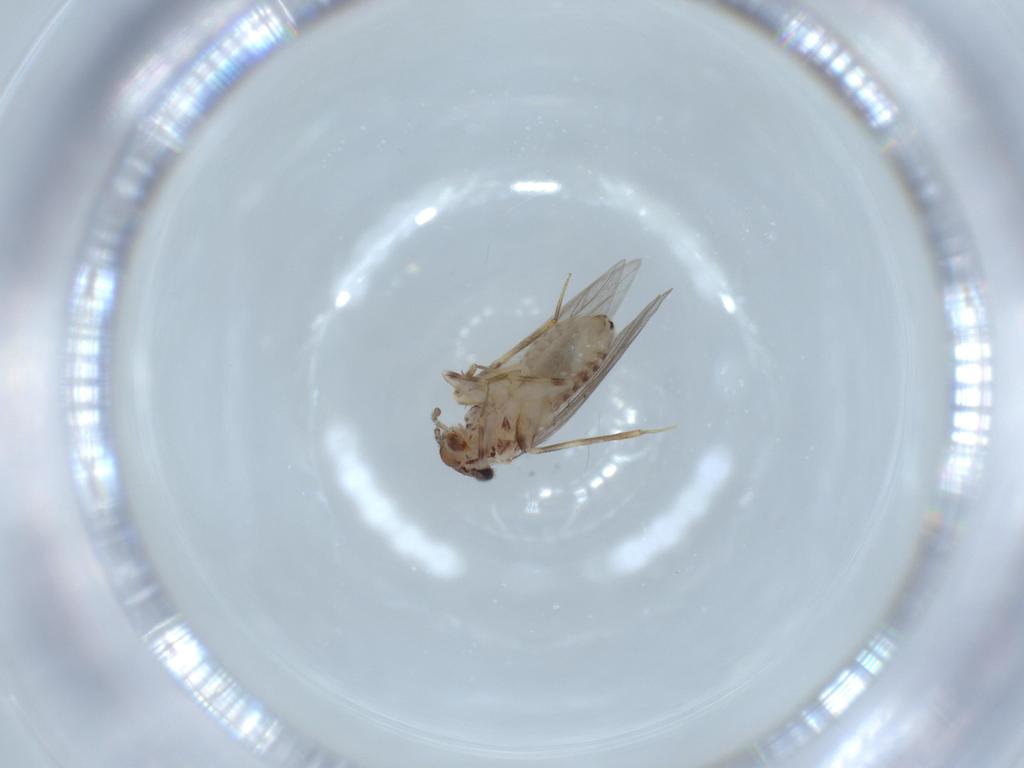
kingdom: Animalia
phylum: Arthropoda
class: Insecta
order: Psocodea
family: Lepidopsocidae
